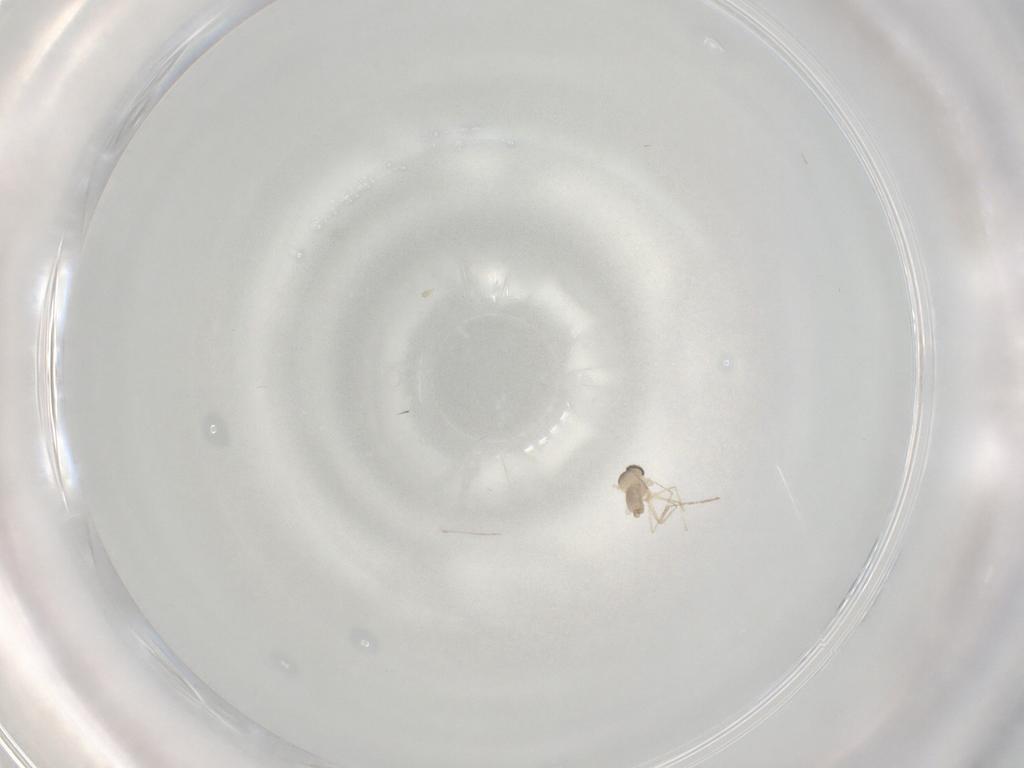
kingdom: Animalia
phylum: Arthropoda
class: Insecta
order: Diptera
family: Cecidomyiidae
